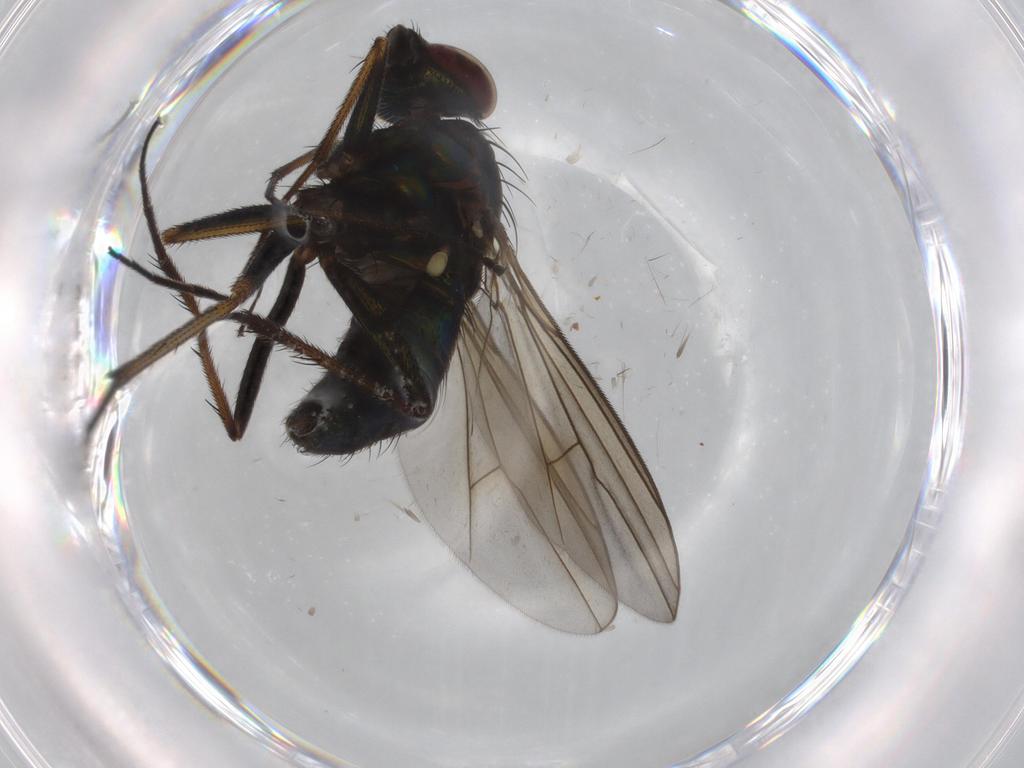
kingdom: Animalia
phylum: Arthropoda
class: Insecta
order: Diptera
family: Dolichopodidae
